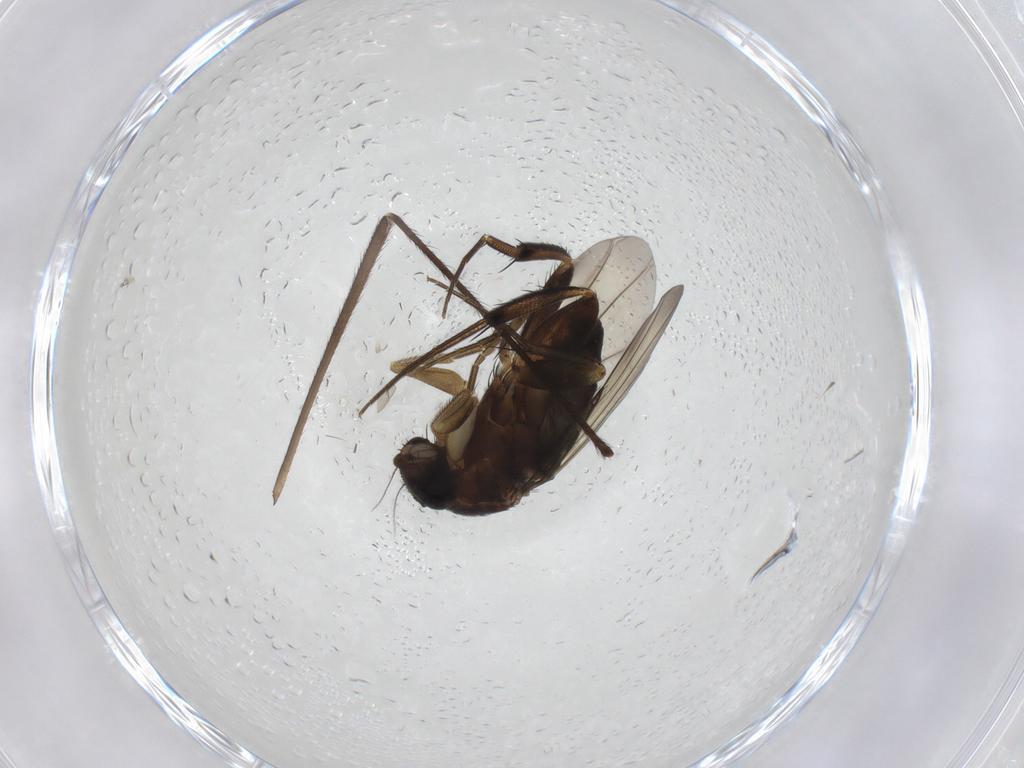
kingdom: Animalia
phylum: Arthropoda
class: Insecta
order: Diptera
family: Phoridae
